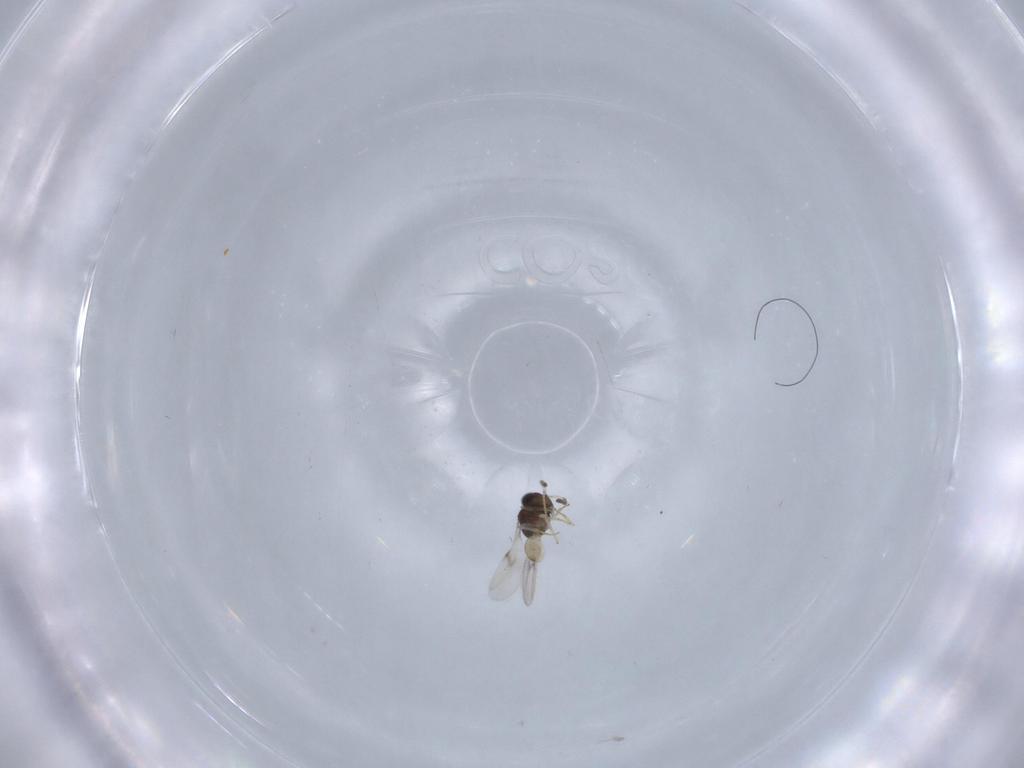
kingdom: Animalia
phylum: Arthropoda
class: Insecta
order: Hymenoptera
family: Scelionidae
